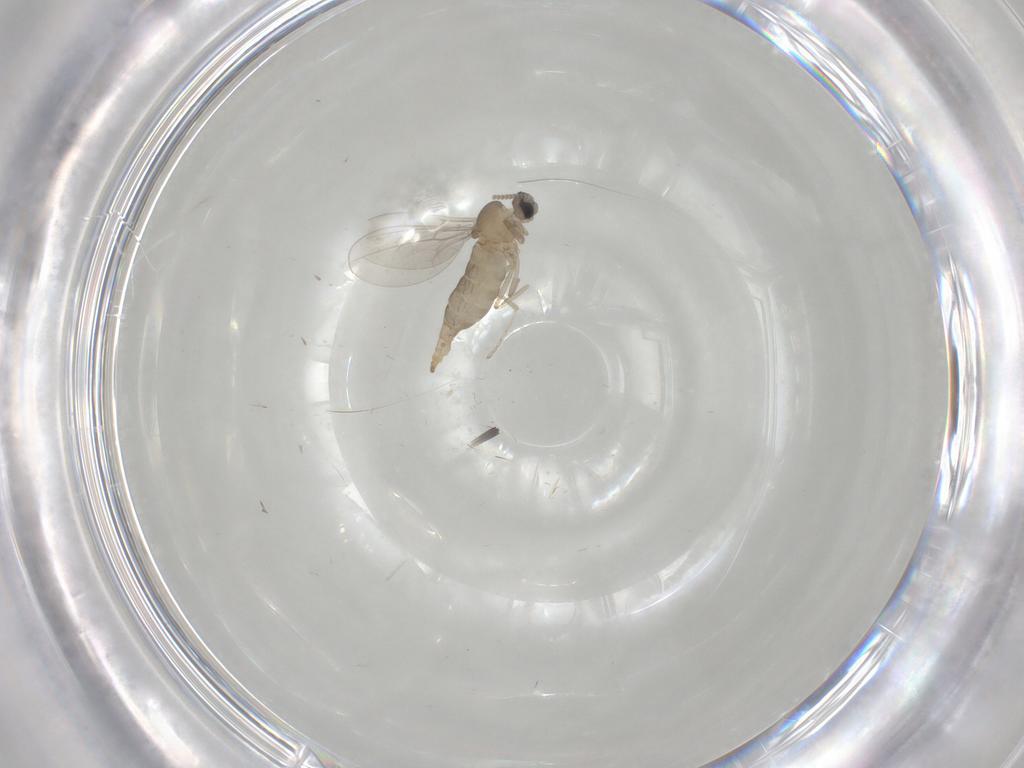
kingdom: Animalia
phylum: Arthropoda
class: Insecta
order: Diptera
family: Cecidomyiidae
